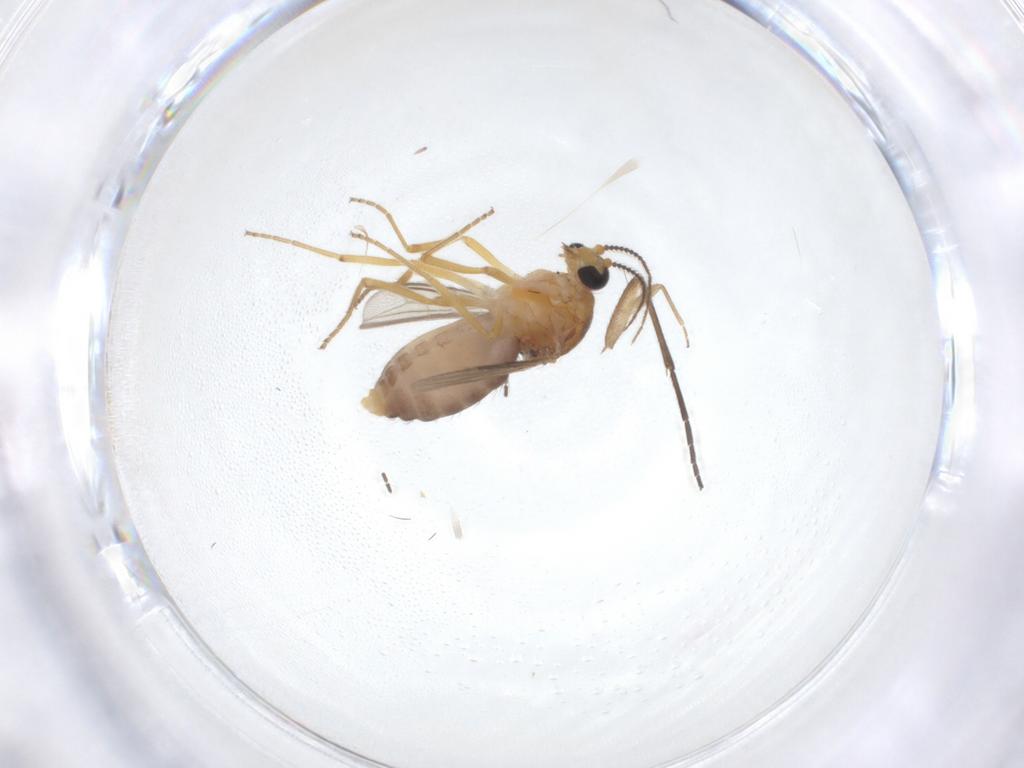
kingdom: Animalia
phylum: Arthropoda
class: Insecta
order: Diptera
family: Ceratopogonidae
